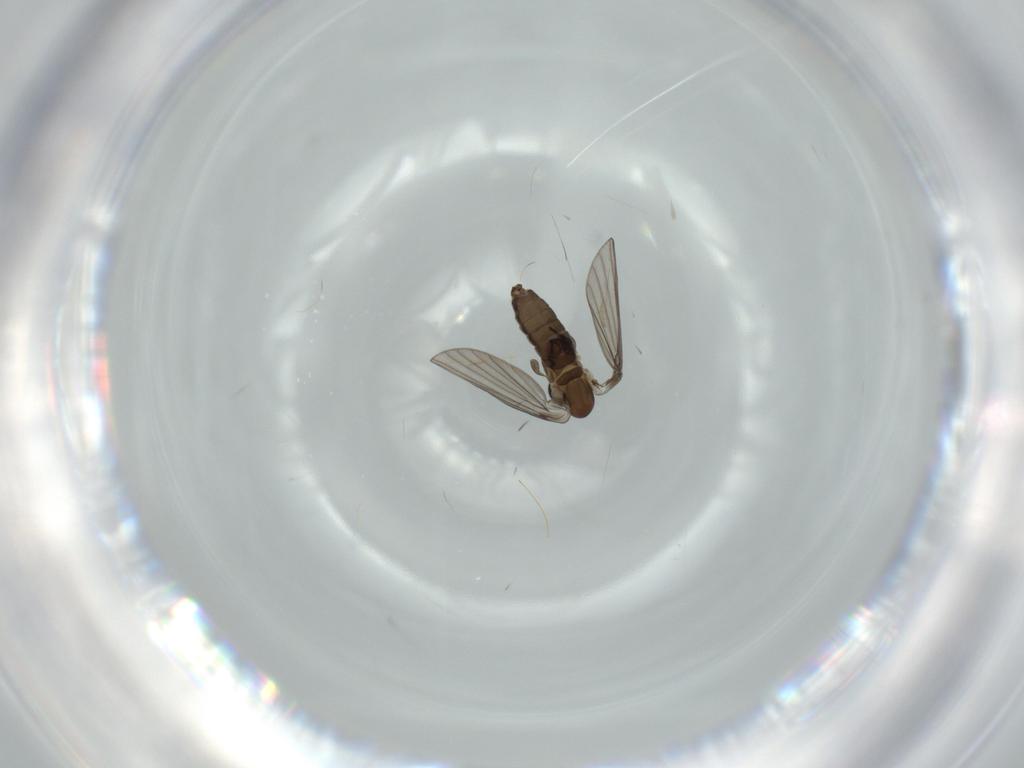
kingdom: Animalia
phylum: Arthropoda
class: Insecta
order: Diptera
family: Psychodidae
